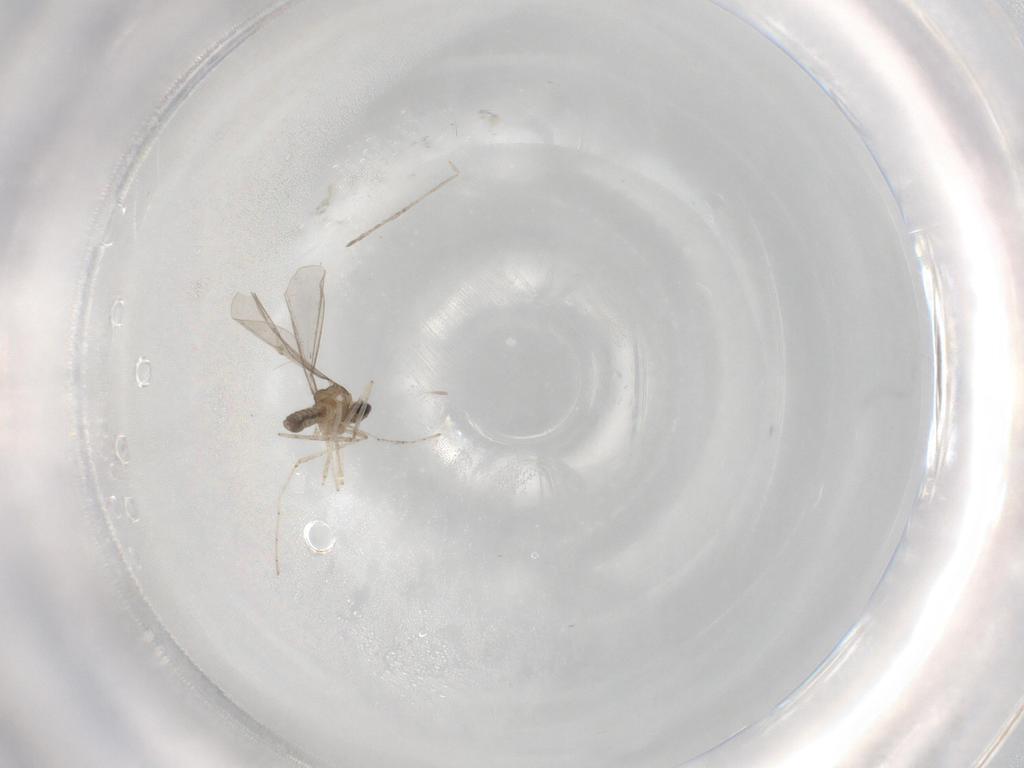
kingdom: Animalia
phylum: Arthropoda
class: Insecta
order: Diptera
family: Cecidomyiidae
